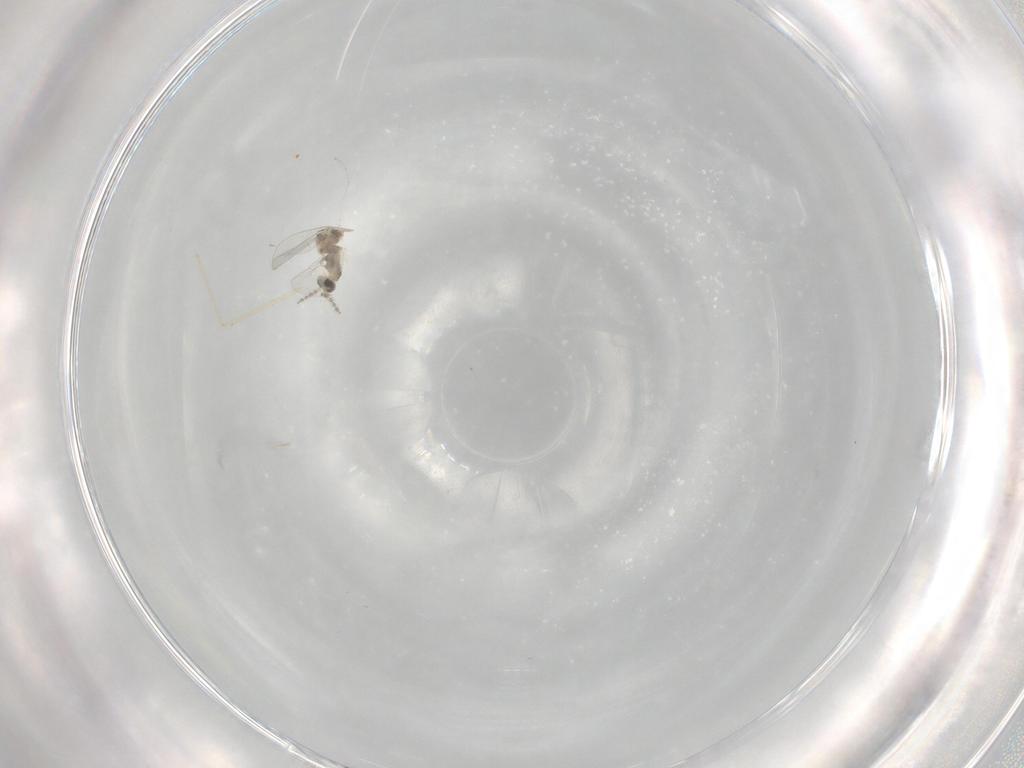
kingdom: Animalia
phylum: Arthropoda
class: Insecta
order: Diptera
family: Cecidomyiidae
